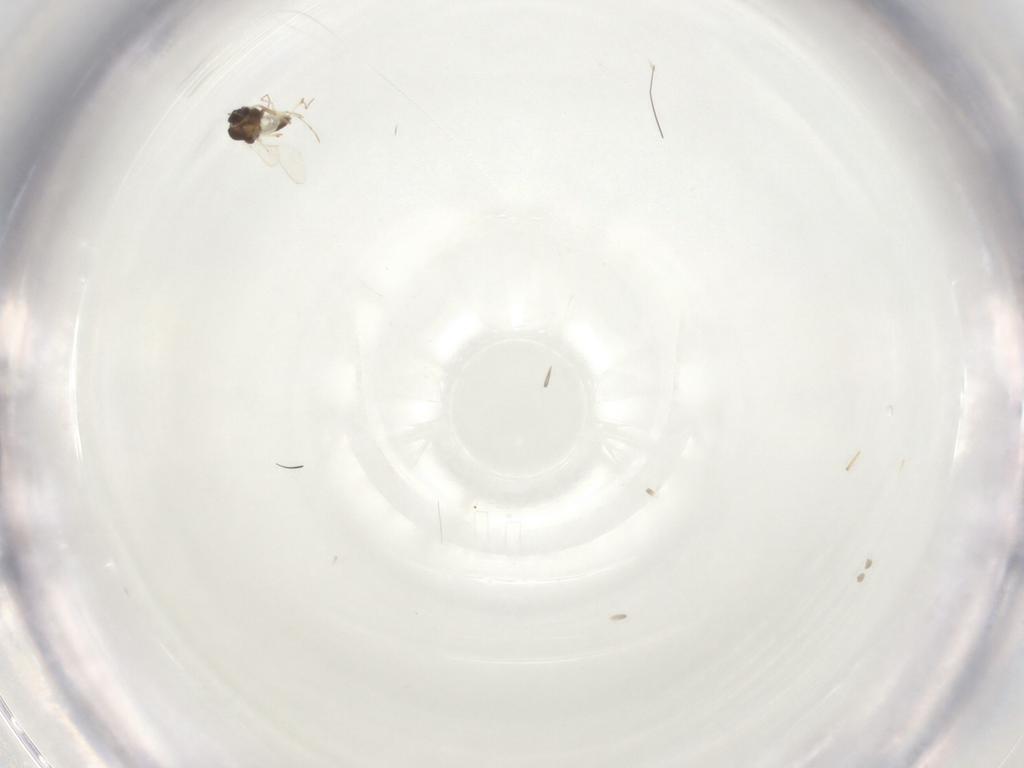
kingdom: Animalia
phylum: Arthropoda
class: Insecta
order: Diptera
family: Chironomidae
